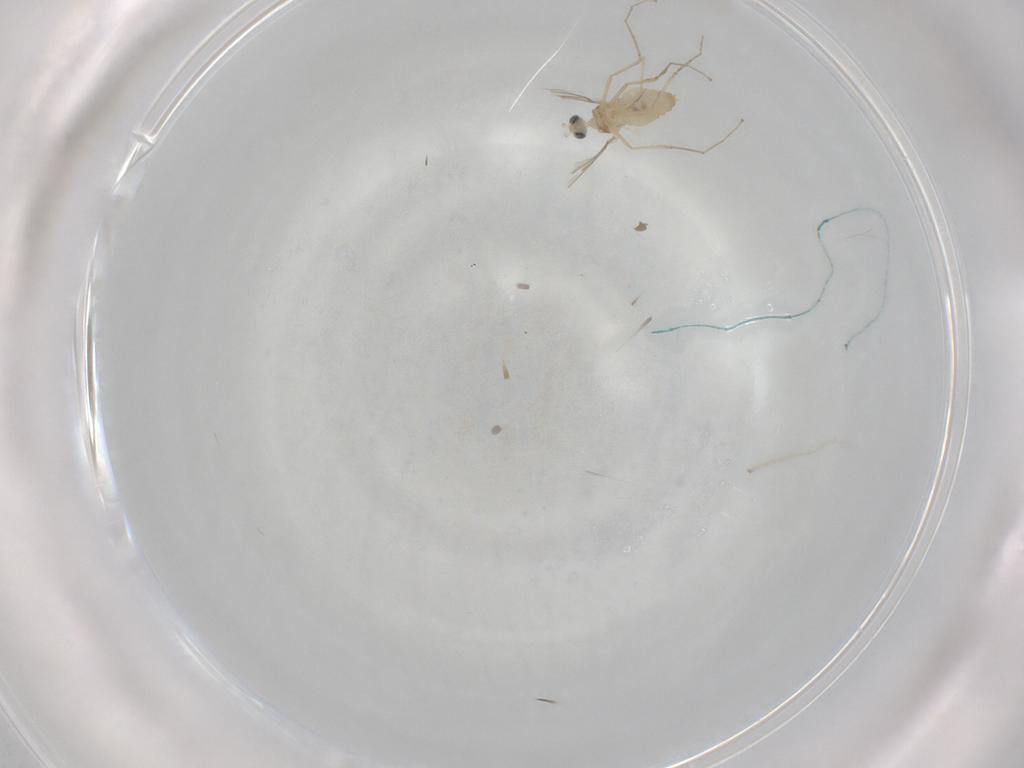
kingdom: Animalia
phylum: Arthropoda
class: Insecta
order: Diptera
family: Cecidomyiidae
